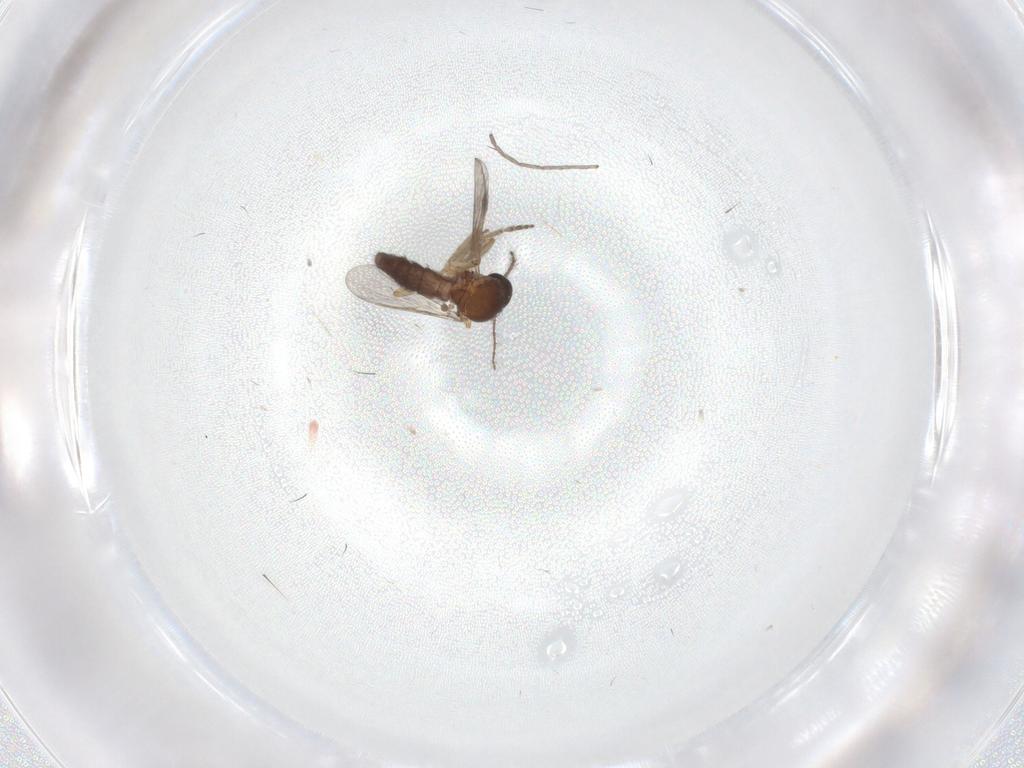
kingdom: Animalia
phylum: Arthropoda
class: Insecta
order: Diptera
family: Ceratopogonidae
